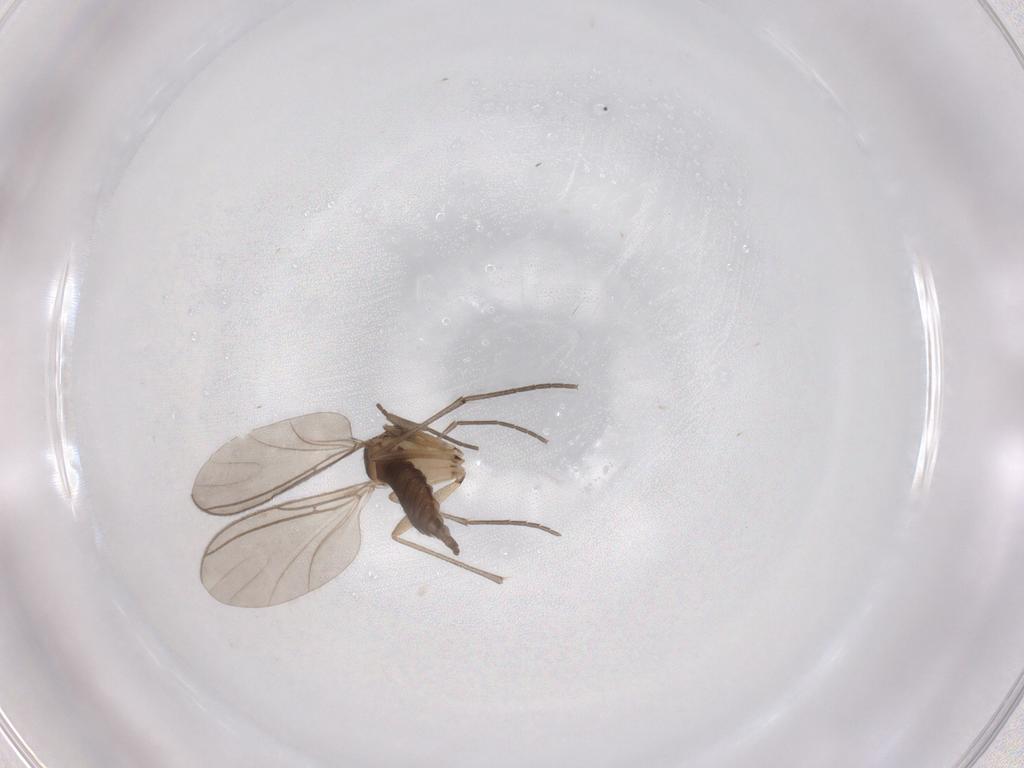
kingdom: Animalia
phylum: Arthropoda
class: Insecta
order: Diptera
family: Sciaridae
